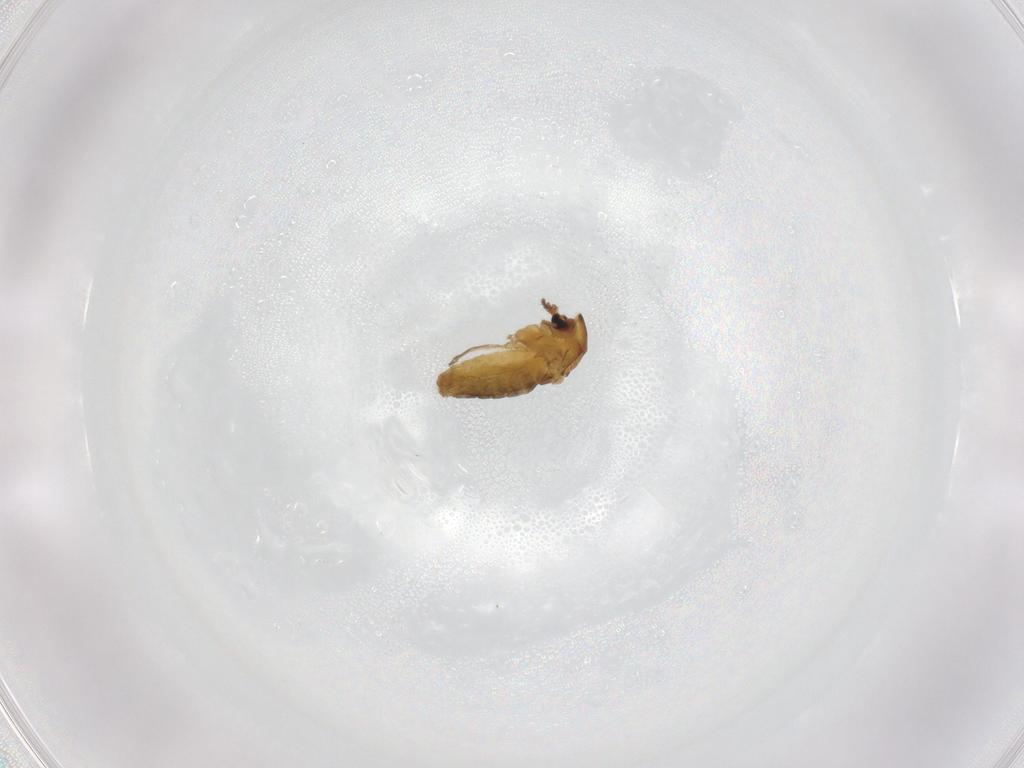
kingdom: Animalia
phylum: Arthropoda
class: Insecta
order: Diptera
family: Chironomidae
